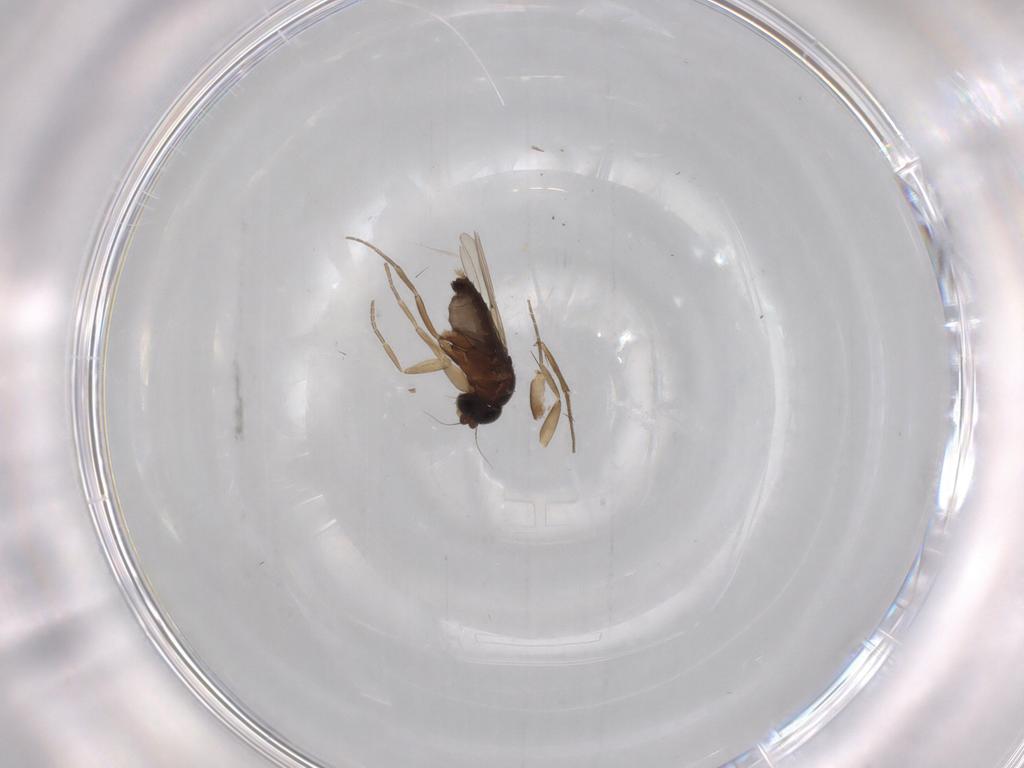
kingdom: Animalia
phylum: Arthropoda
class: Insecta
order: Diptera
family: Phoridae
